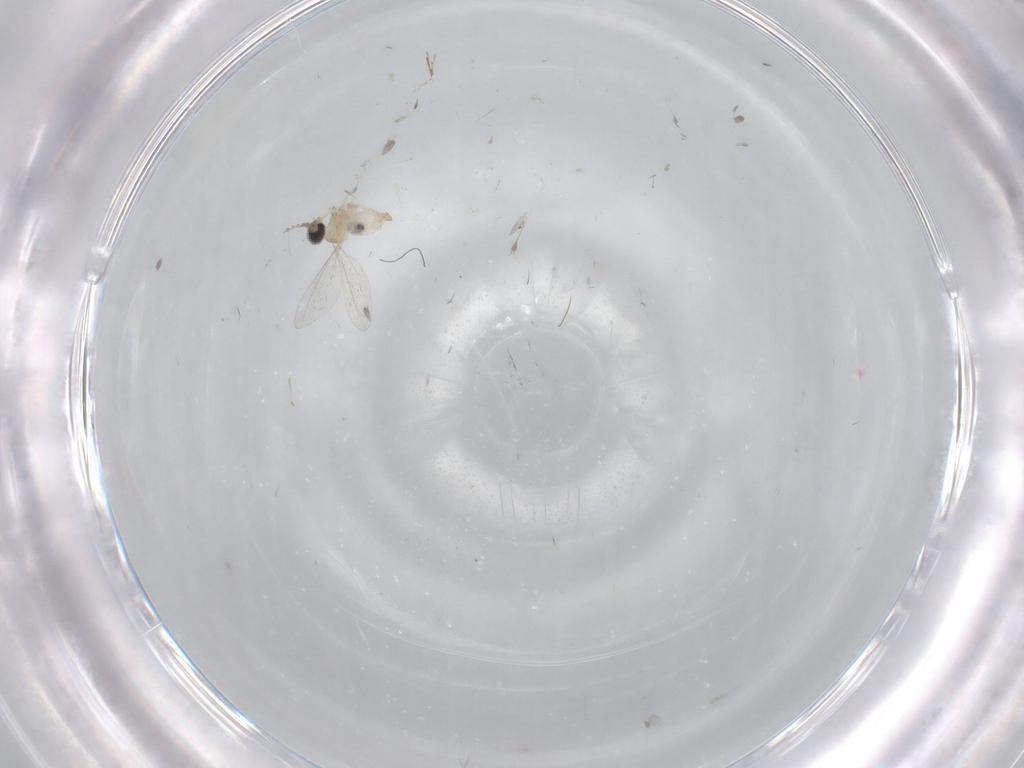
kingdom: Animalia
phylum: Arthropoda
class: Insecta
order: Diptera
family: Cecidomyiidae
